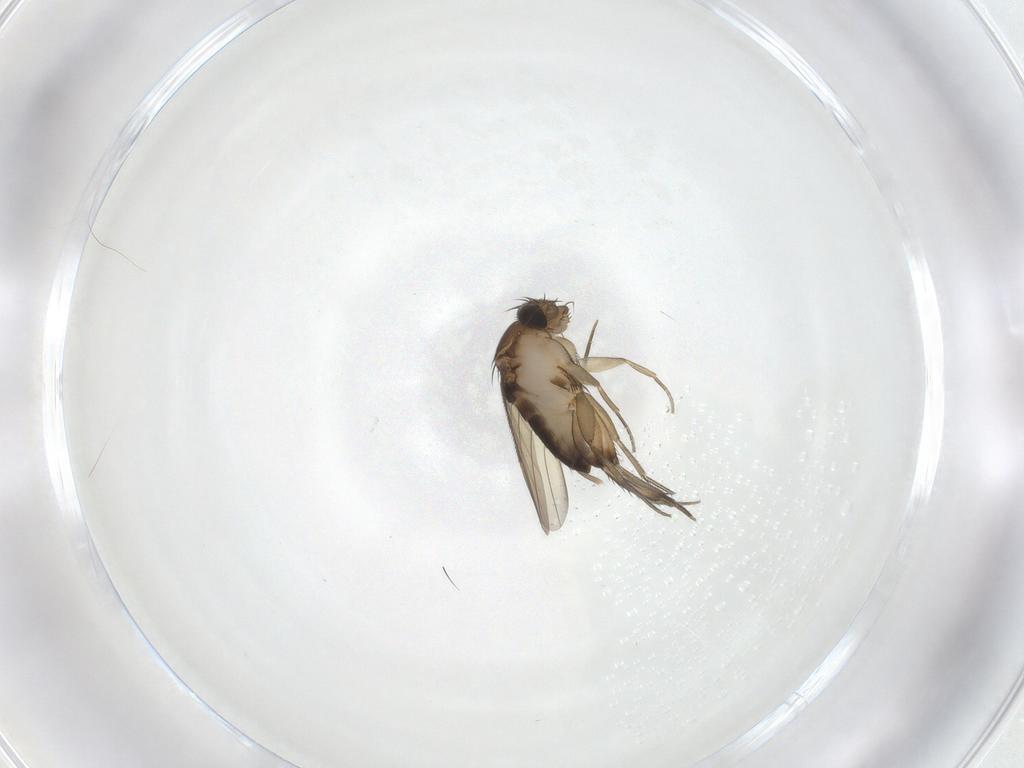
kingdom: Animalia
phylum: Arthropoda
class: Insecta
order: Diptera
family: Phoridae
